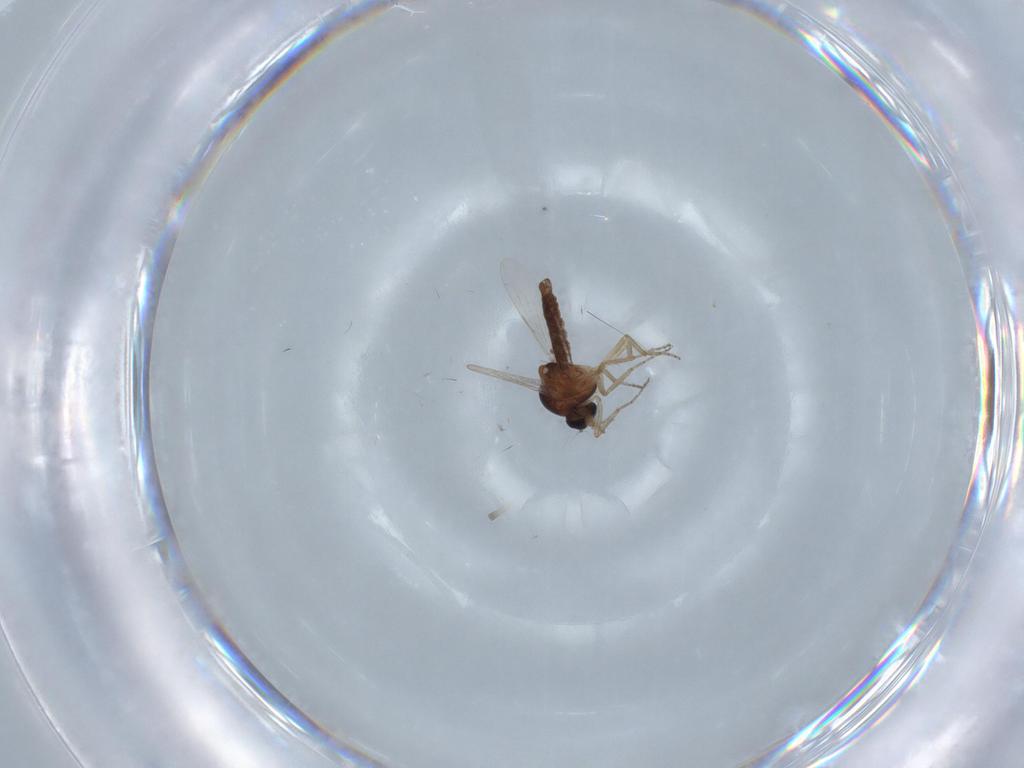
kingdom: Animalia
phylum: Arthropoda
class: Insecta
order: Diptera
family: Ceratopogonidae
